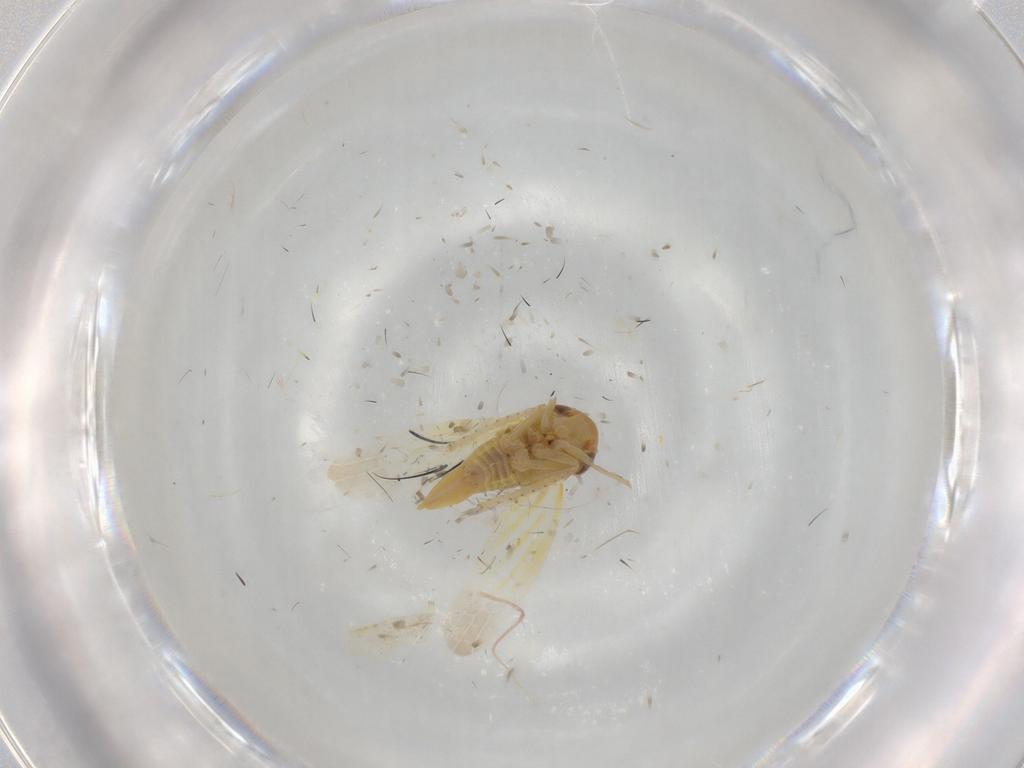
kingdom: Animalia
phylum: Arthropoda
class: Insecta
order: Hemiptera
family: Cicadellidae
